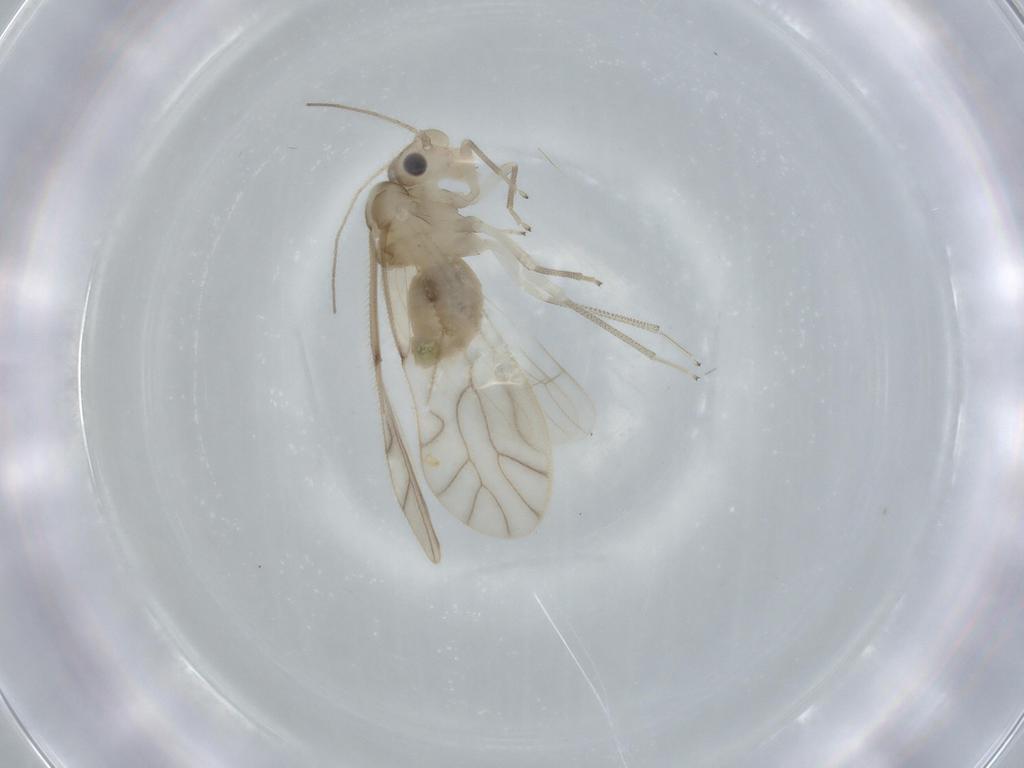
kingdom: Animalia
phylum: Arthropoda
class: Insecta
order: Psocodea
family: Caeciliusidae
